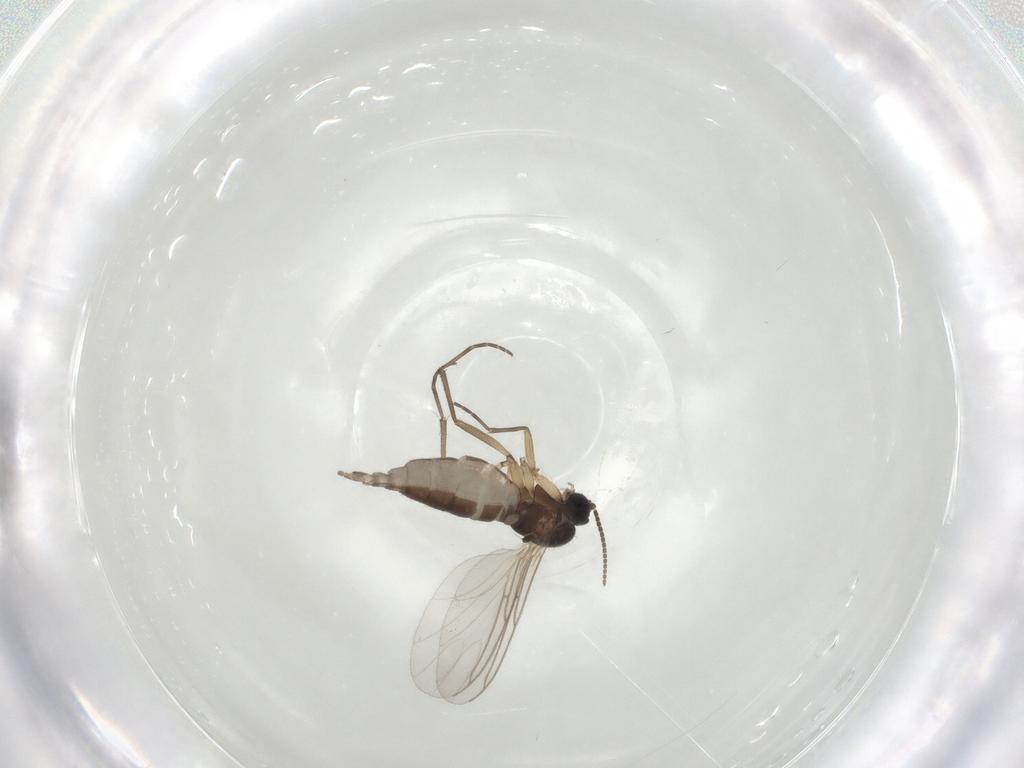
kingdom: Animalia
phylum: Arthropoda
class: Insecta
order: Diptera
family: Sciaridae
